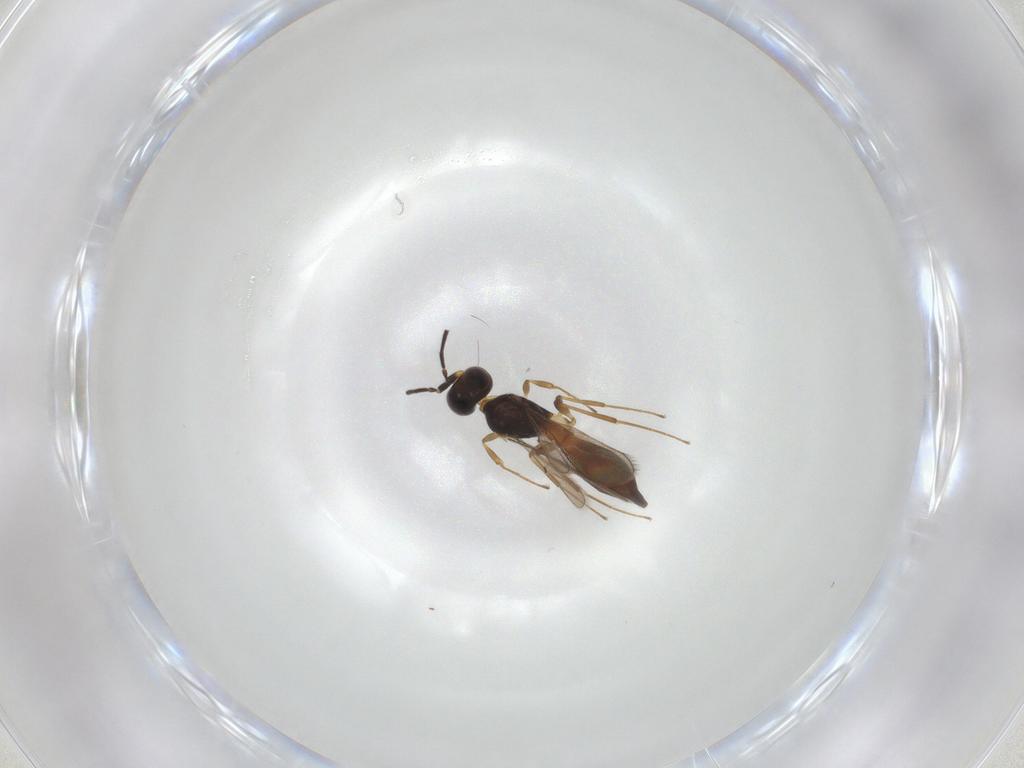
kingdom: Animalia
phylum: Arthropoda
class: Insecta
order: Hymenoptera
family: Scelionidae
